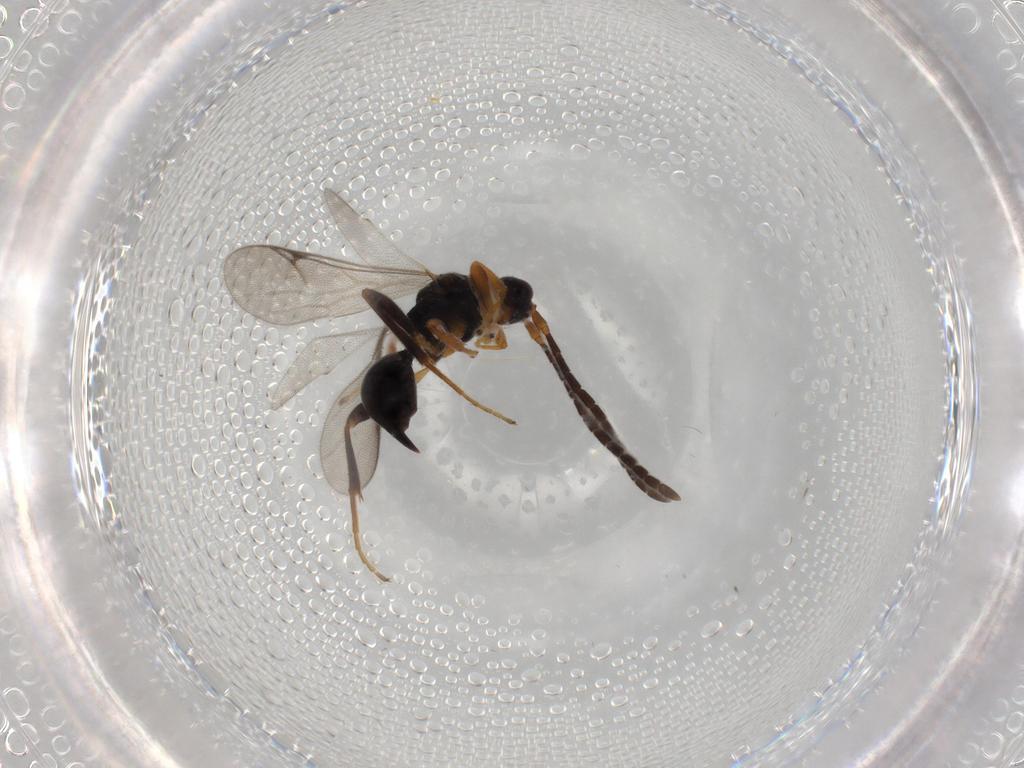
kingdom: Animalia
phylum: Arthropoda
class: Insecta
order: Hymenoptera
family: Proctotrupidae
